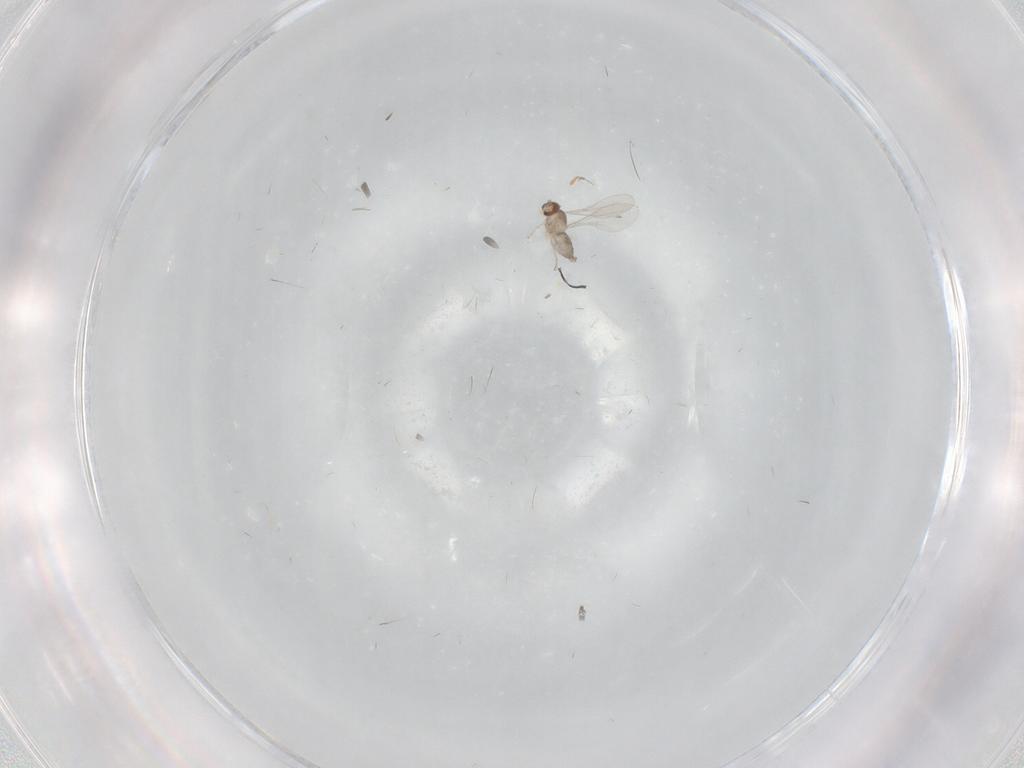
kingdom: Animalia
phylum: Arthropoda
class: Insecta
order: Diptera
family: Cecidomyiidae
